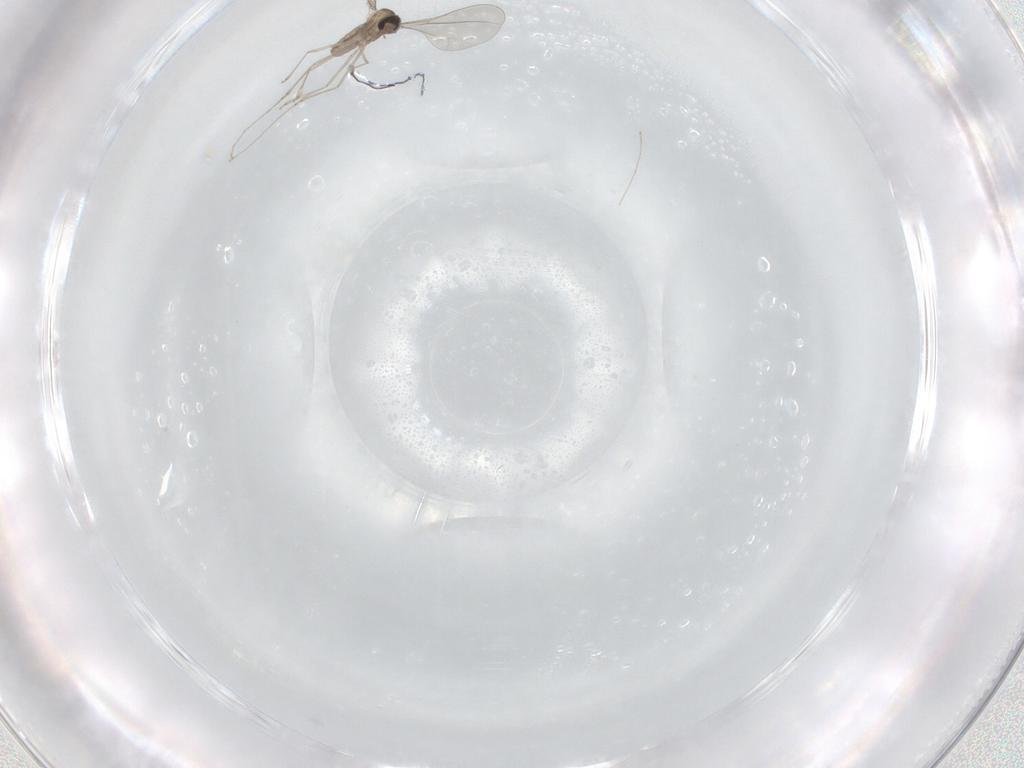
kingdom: Animalia
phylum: Arthropoda
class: Insecta
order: Diptera
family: Cecidomyiidae
